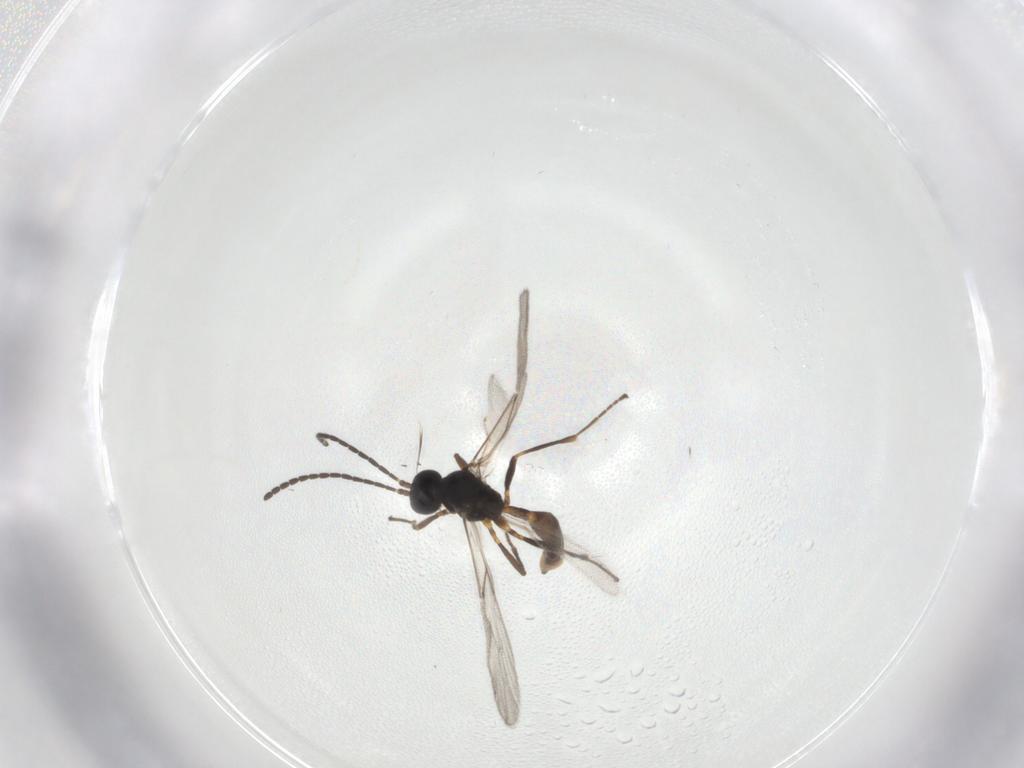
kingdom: Animalia
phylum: Arthropoda
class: Insecta
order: Hymenoptera
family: Braconidae
